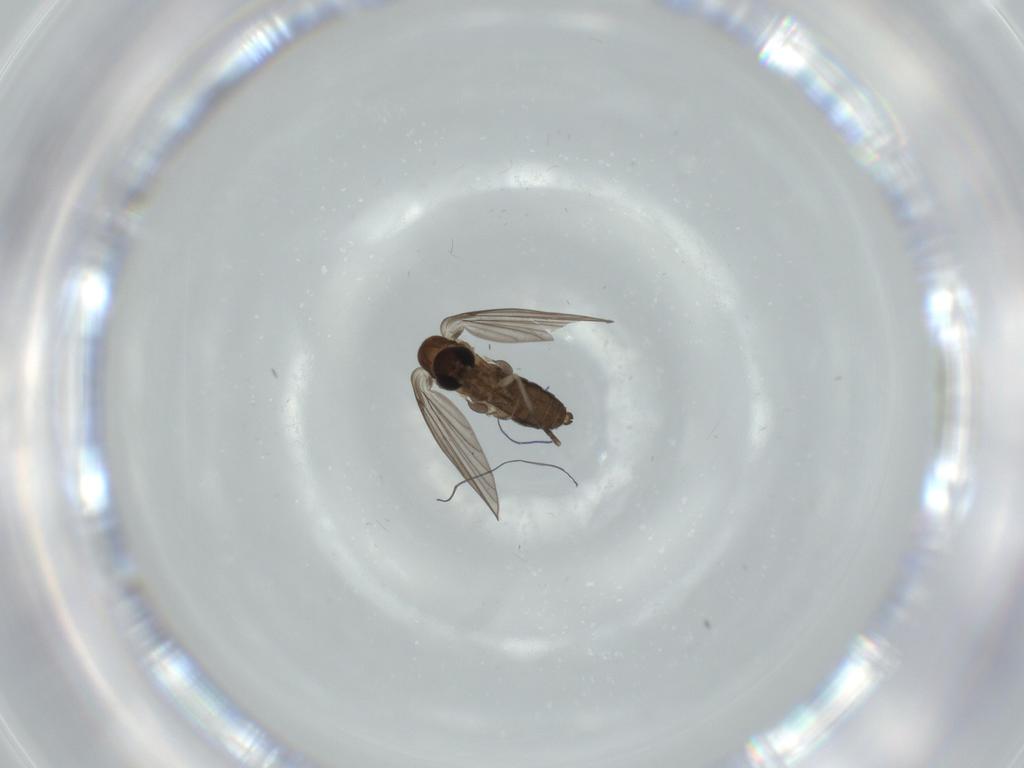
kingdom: Animalia
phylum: Arthropoda
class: Insecta
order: Diptera
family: Psychodidae
